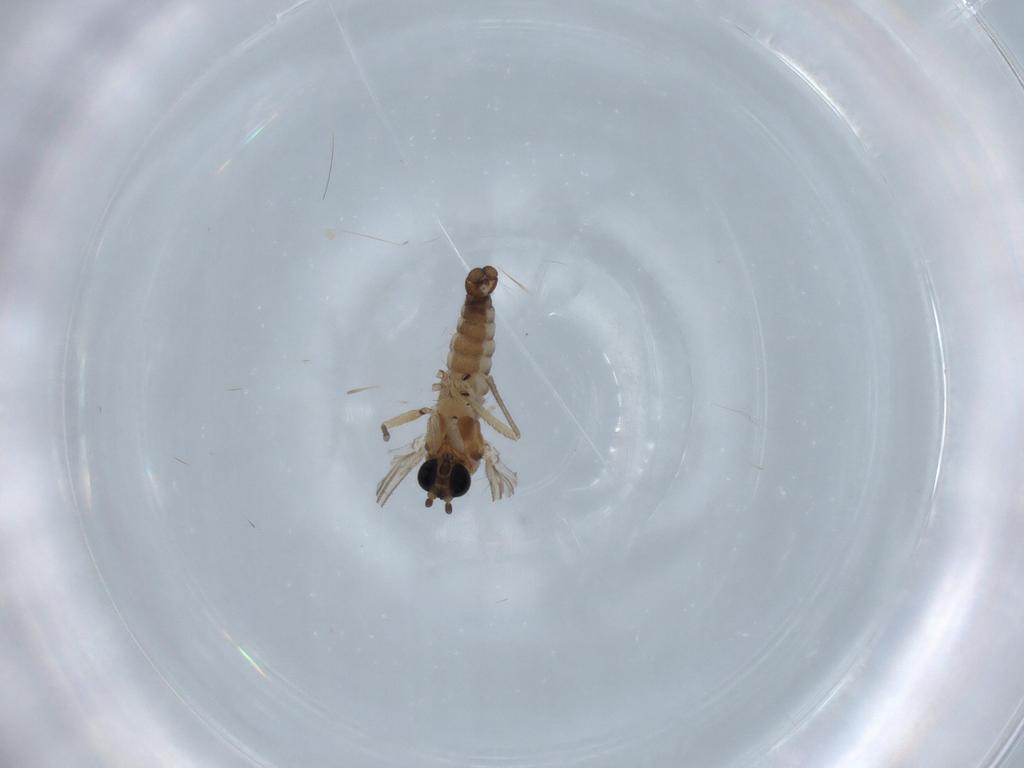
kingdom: Animalia
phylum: Arthropoda
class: Insecta
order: Diptera
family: Sciaridae
